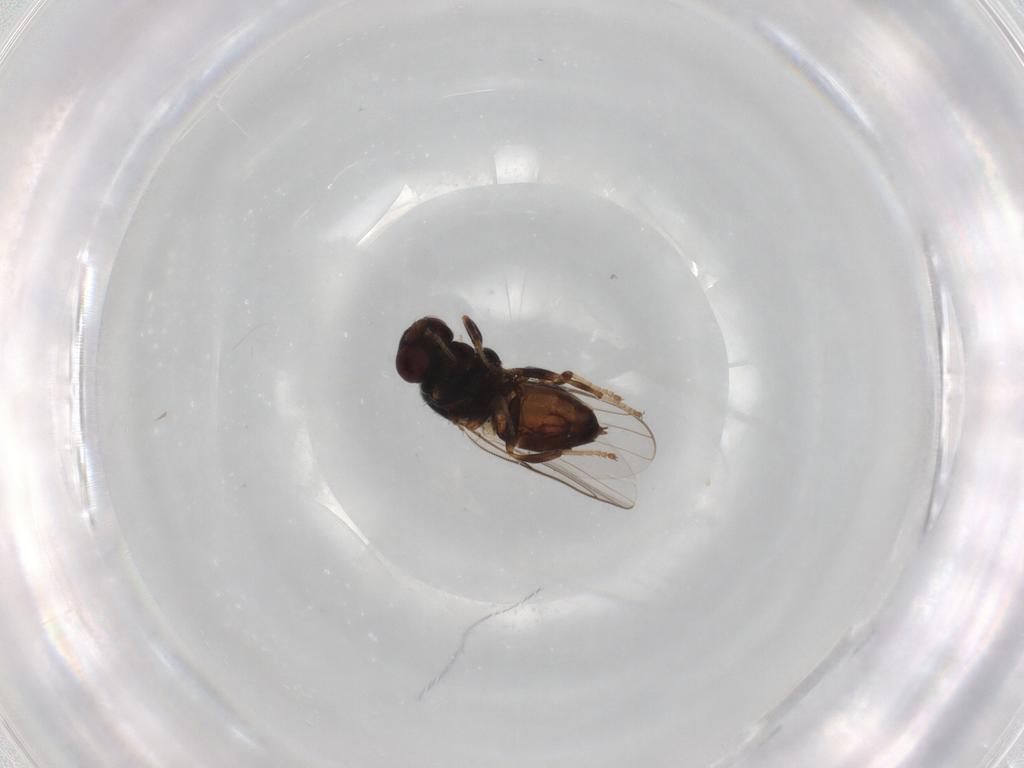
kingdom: Animalia
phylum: Arthropoda
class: Insecta
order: Diptera
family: Chloropidae
